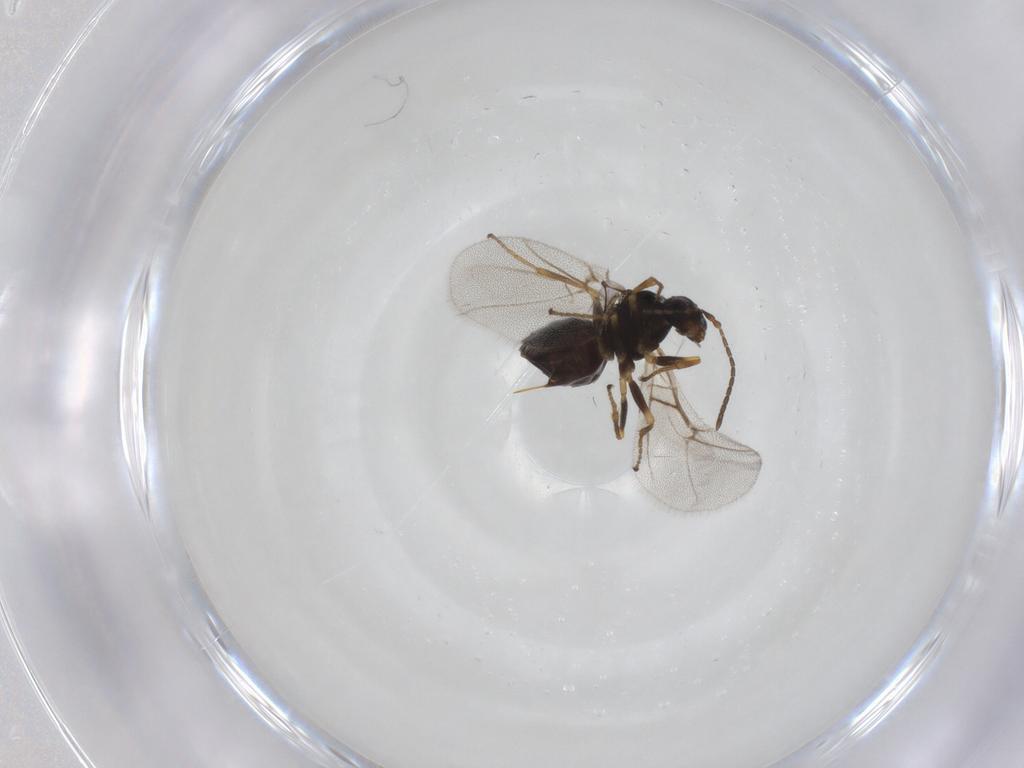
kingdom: Animalia
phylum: Arthropoda
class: Insecta
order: Hymenoptera
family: Cynipidae
